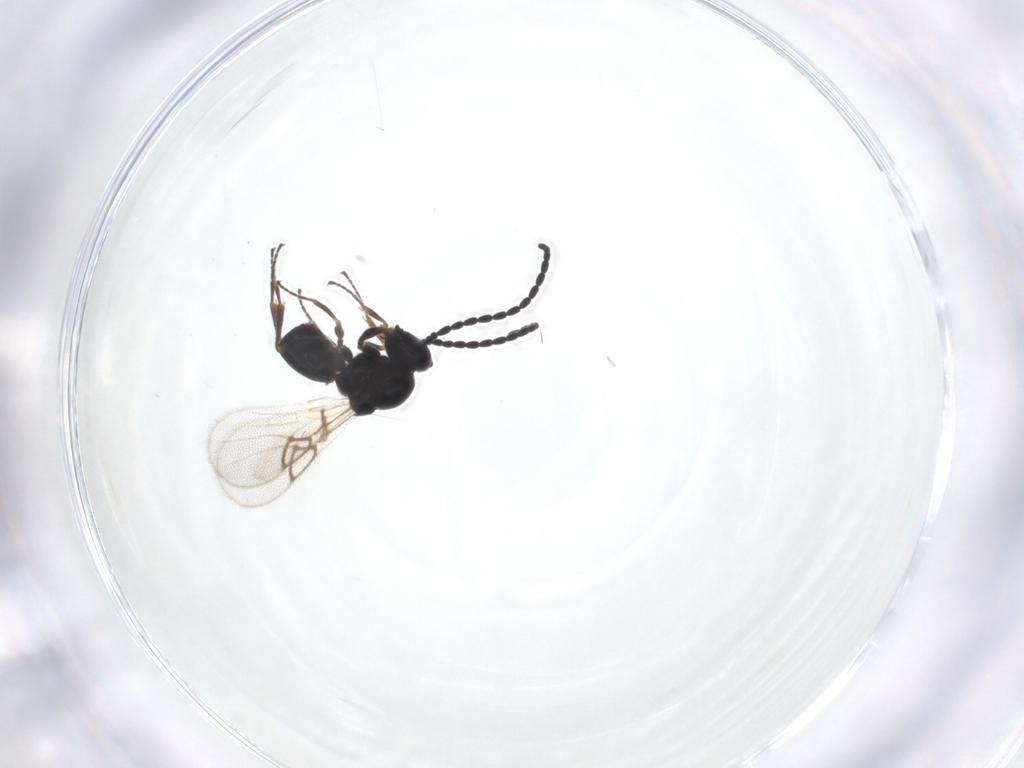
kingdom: Animalia
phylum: Arthropoda
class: Insecta
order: Hymenoptera
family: Figitidae
